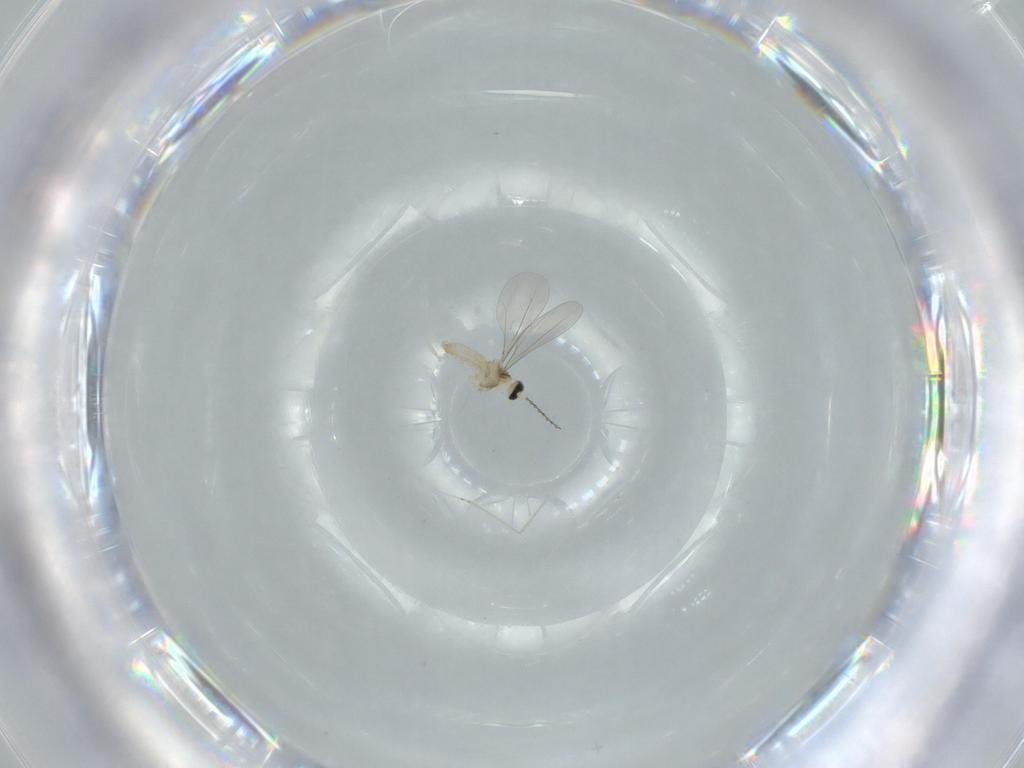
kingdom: Animalia
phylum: Arthropoda
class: Insecta
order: Diptera
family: Cecidomyiidae
